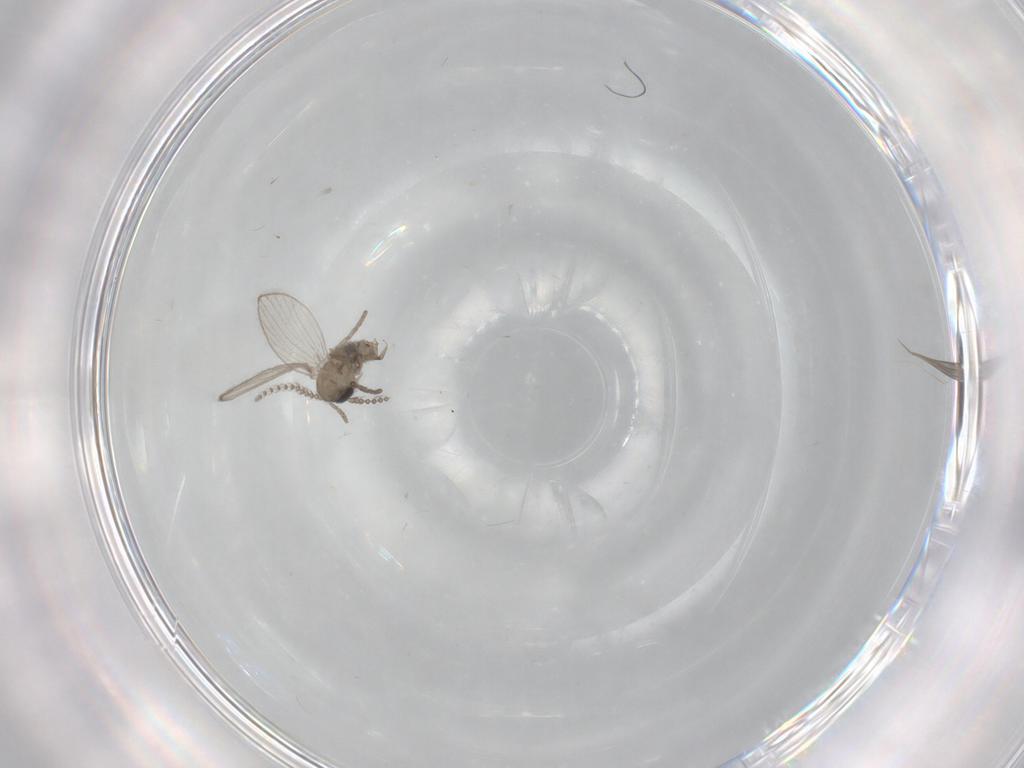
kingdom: Animalia
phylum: Arthropoda
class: Insecta
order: Diptera
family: Psychodidae
